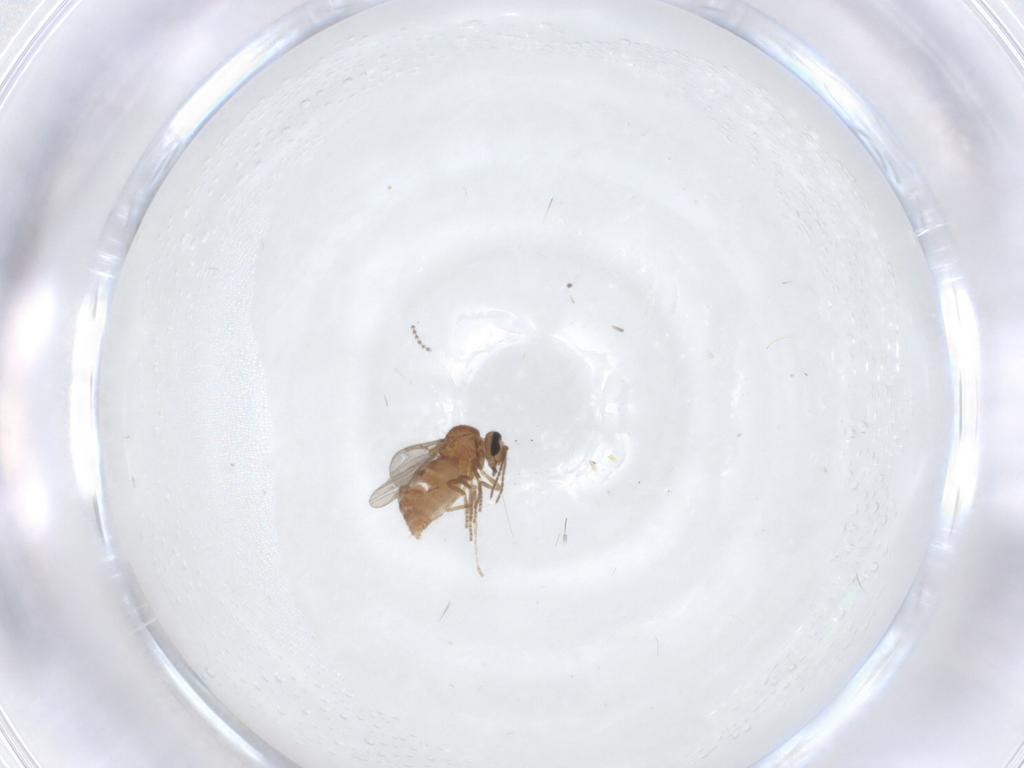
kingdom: Animalia
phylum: Arthropoda
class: Insecta
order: Diptera
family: Cecidomyiidae
